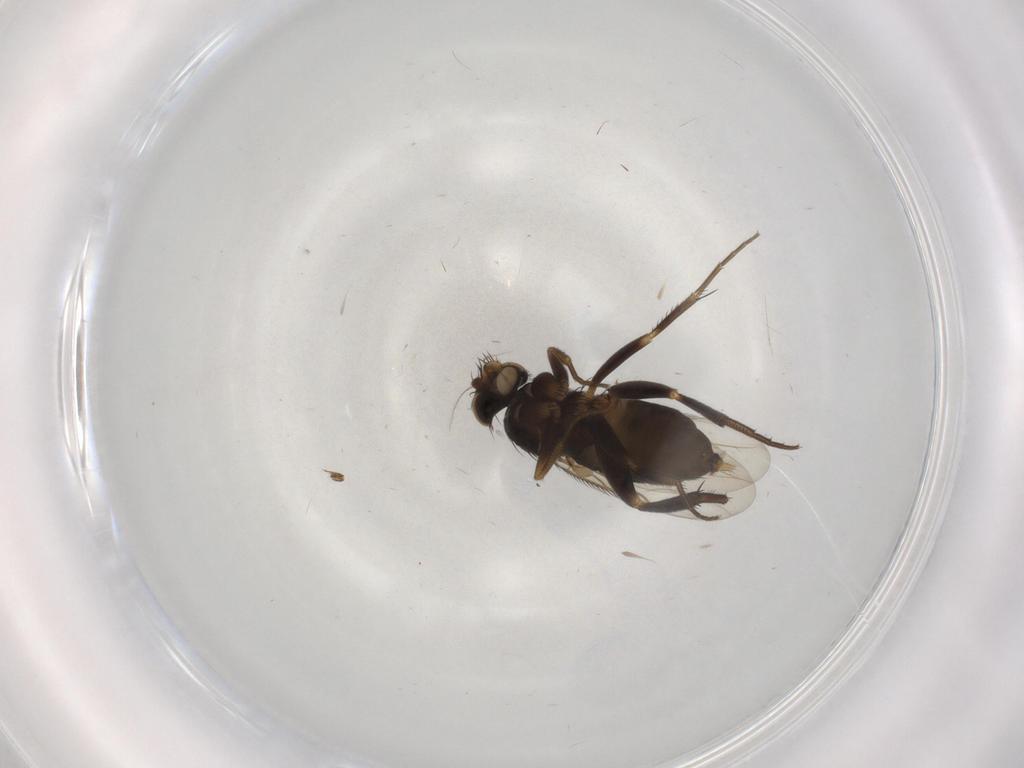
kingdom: Animalia
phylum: Arthropoda
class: Insecta
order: Diptera
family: Phoridae
